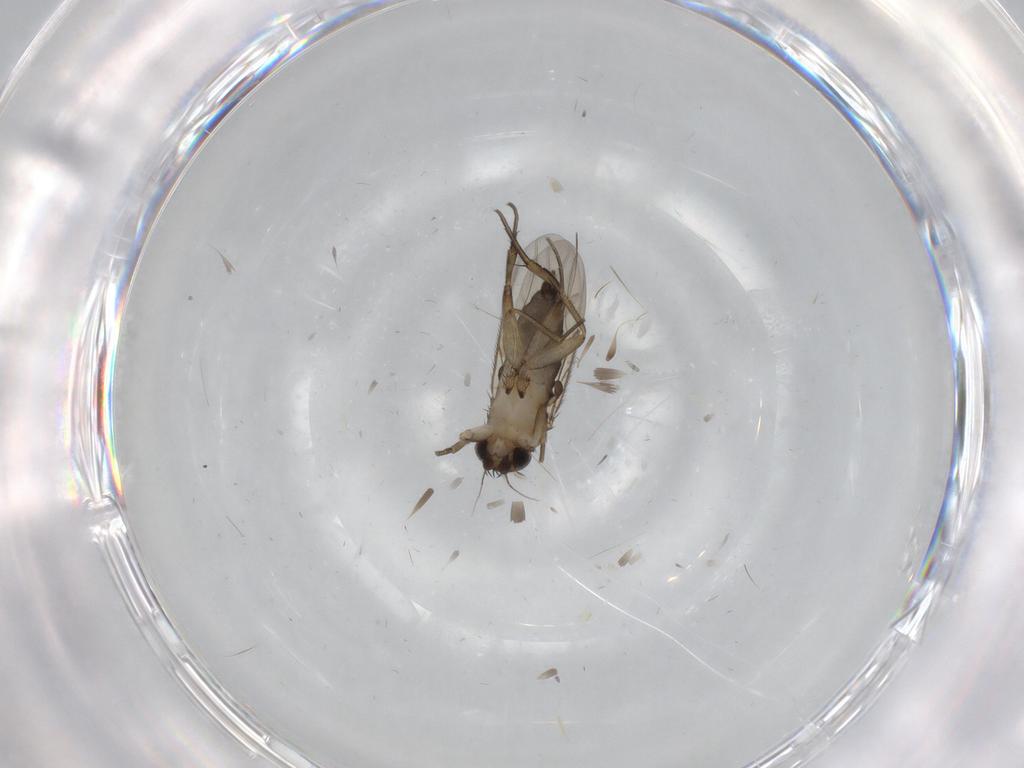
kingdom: Animalia
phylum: Arthropoda
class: Insecta
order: Diptera
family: Phoridae
